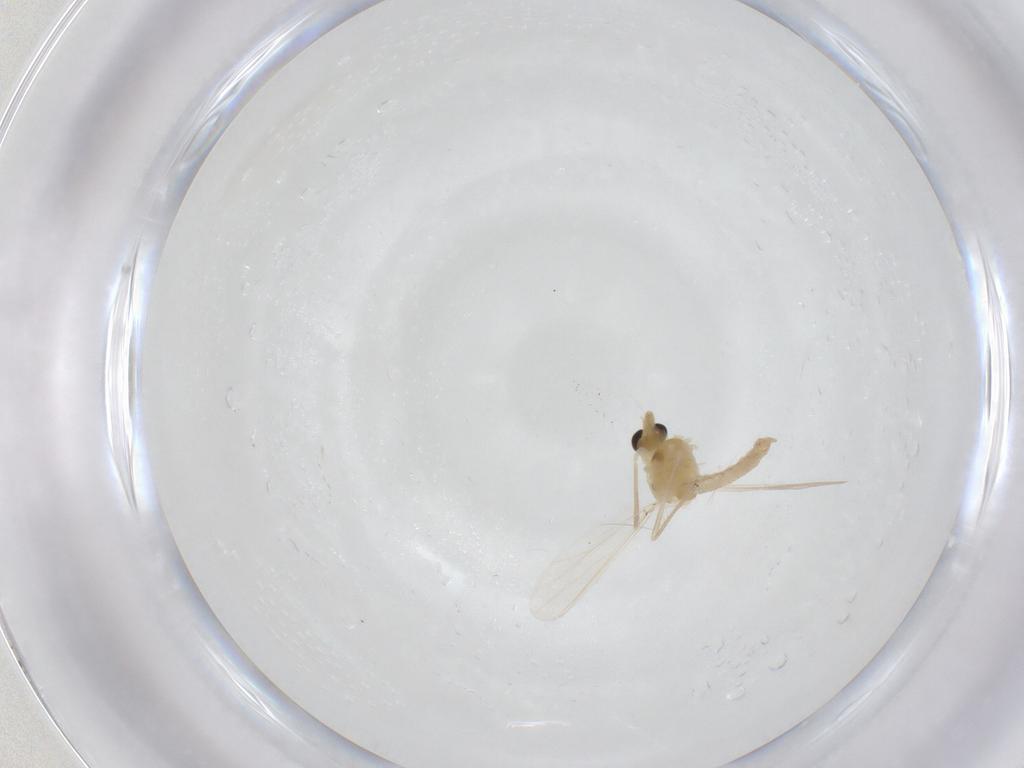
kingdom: Animalia
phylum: Arthropoda
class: Insecta
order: Diptera
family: Chironomidae
